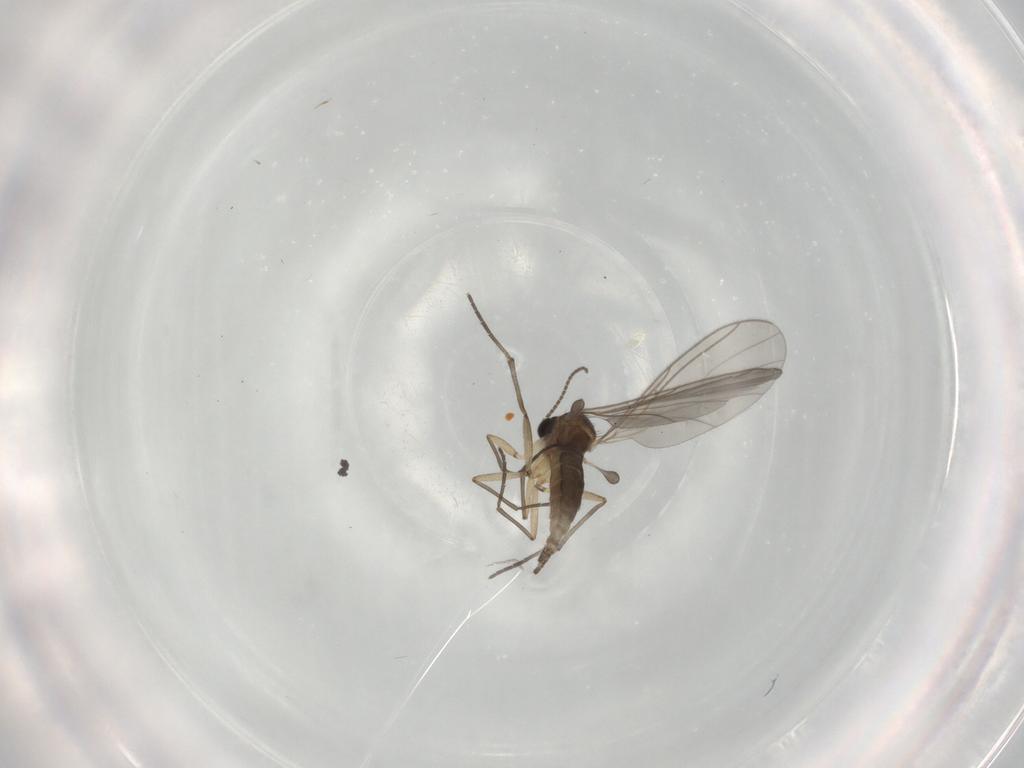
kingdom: Animalia
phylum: Arthropoda
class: Insecta
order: Diptera
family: Sciaridae
